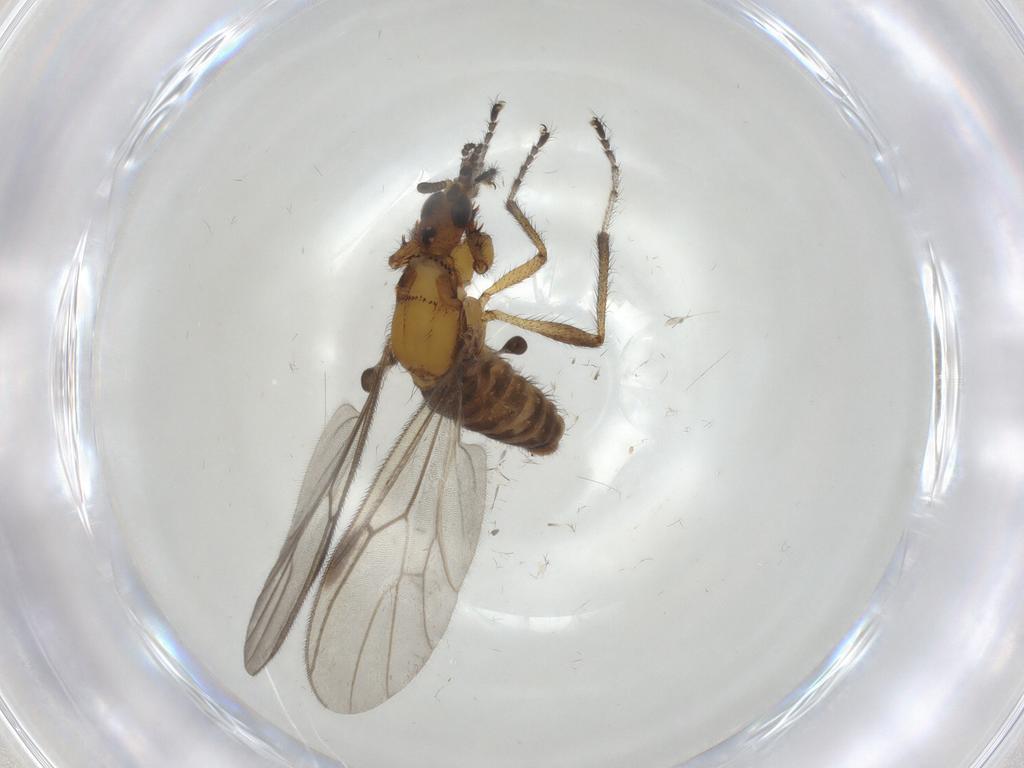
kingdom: Animalia
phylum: Arthropoda
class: Insecta
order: Diptera
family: Bibionidae
